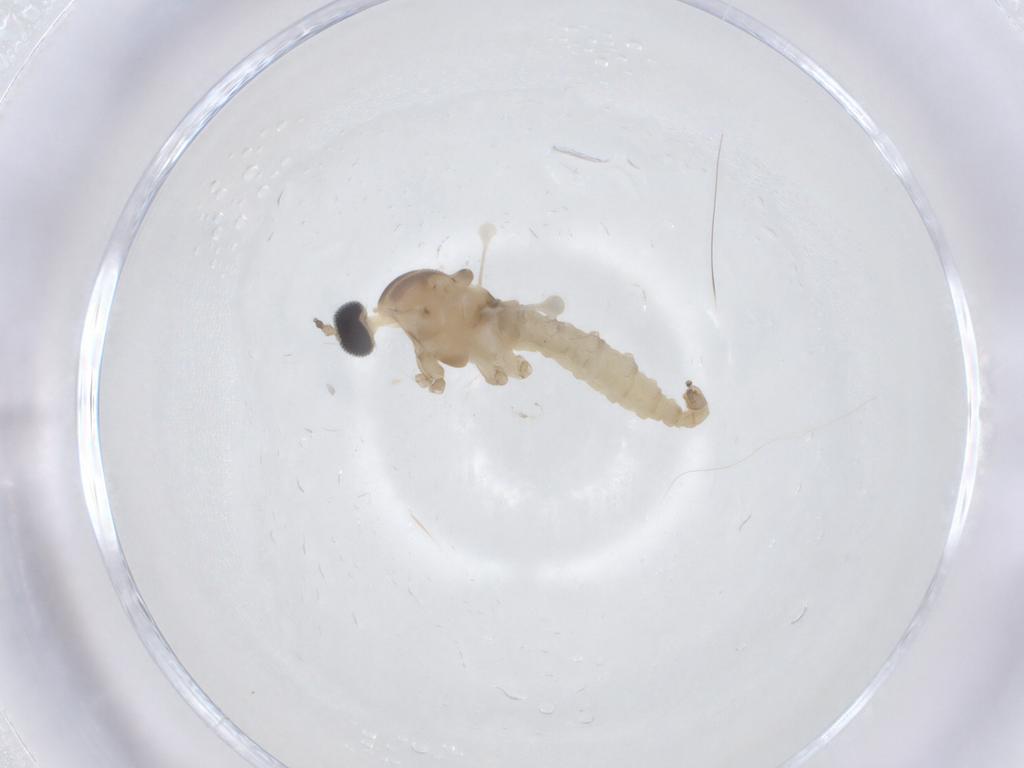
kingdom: Animalia
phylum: Arthropoda
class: Insecta
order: Diptera
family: Cecidomyiidae
